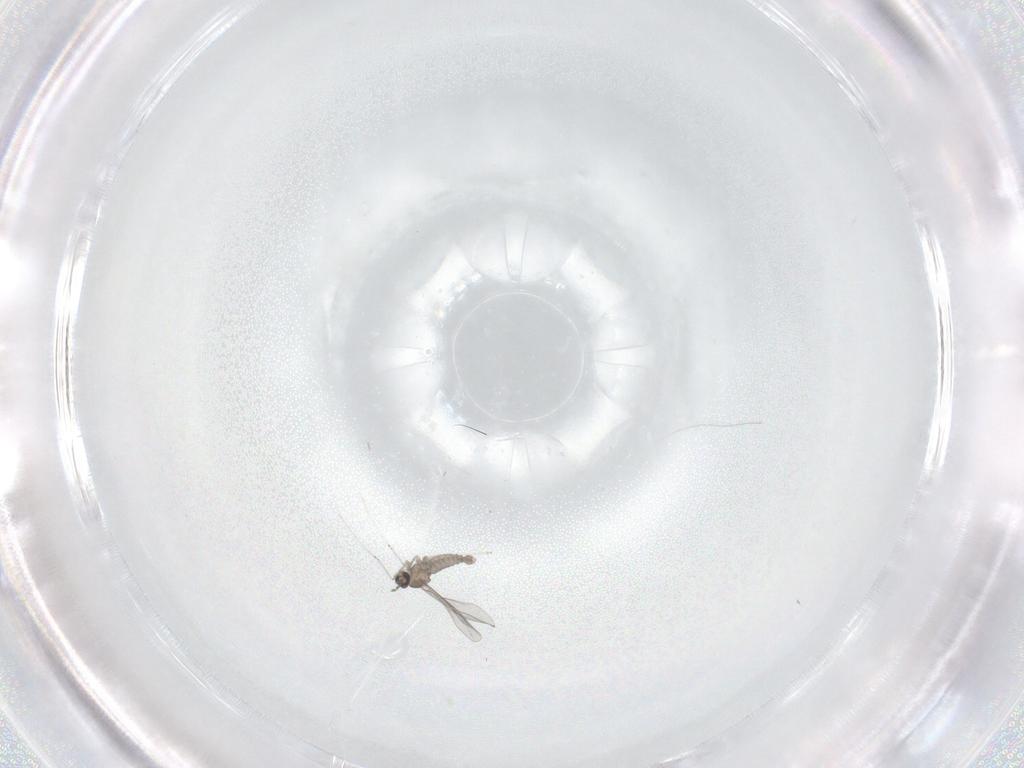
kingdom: Animalia
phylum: Arthropoda
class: Insecta
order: Diptera
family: Cecidomyiidae
